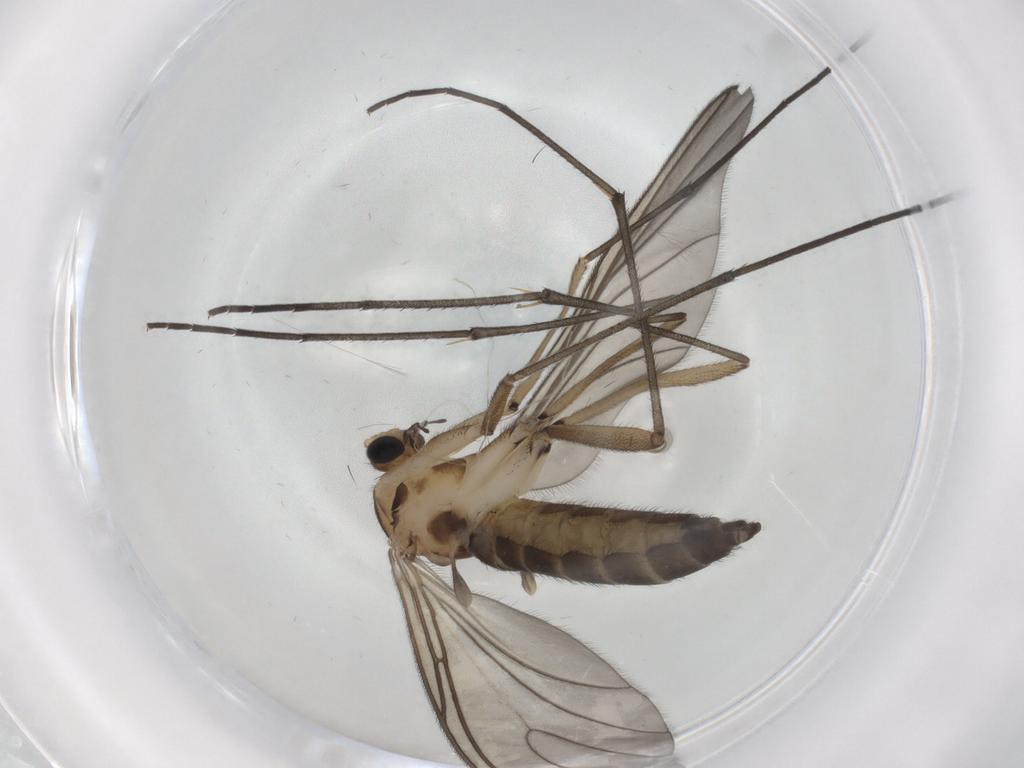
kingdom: Animalia
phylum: Arthropoda
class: Insecta
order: Diptera
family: Sciaridae
